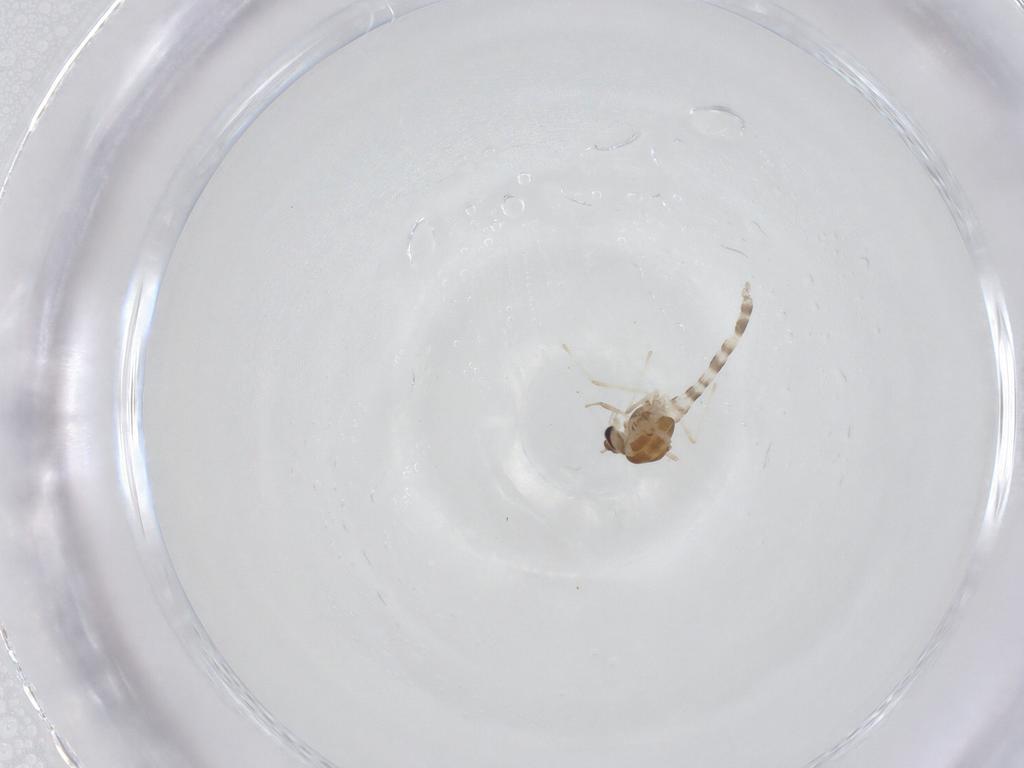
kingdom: Animalia
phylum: Arthropoda
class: Insecta
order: Diptera
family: Chironomidae
